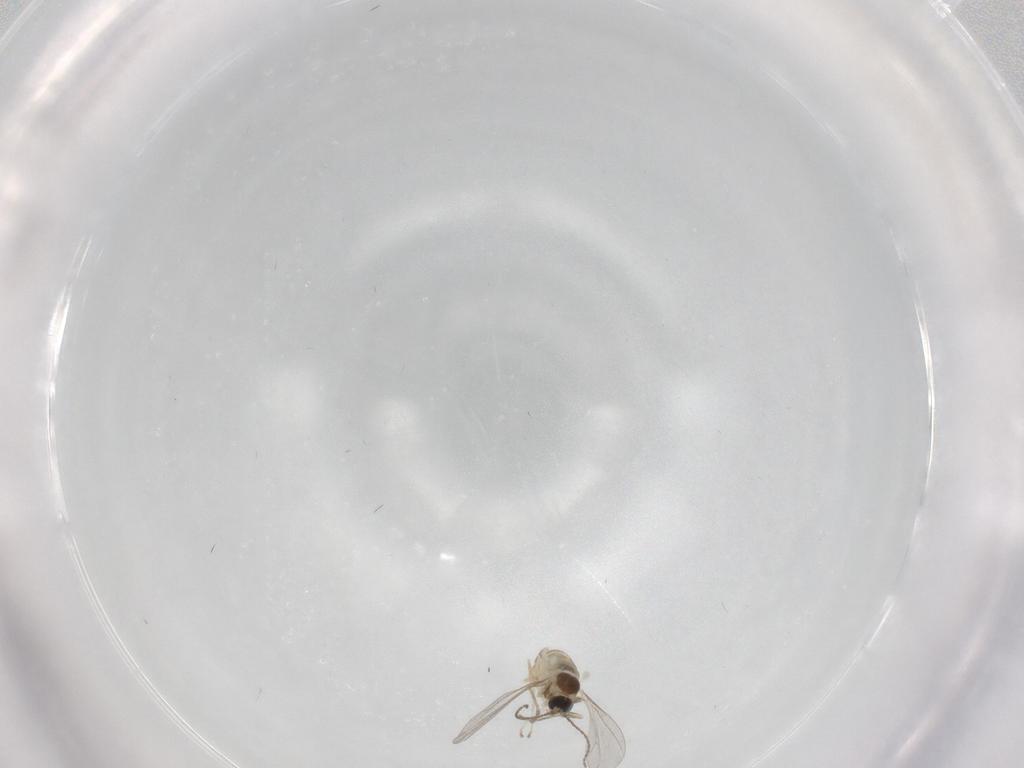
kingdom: Animalia
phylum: Arthropoda
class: Insecta
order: Diptera
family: Cecidomyiidae
